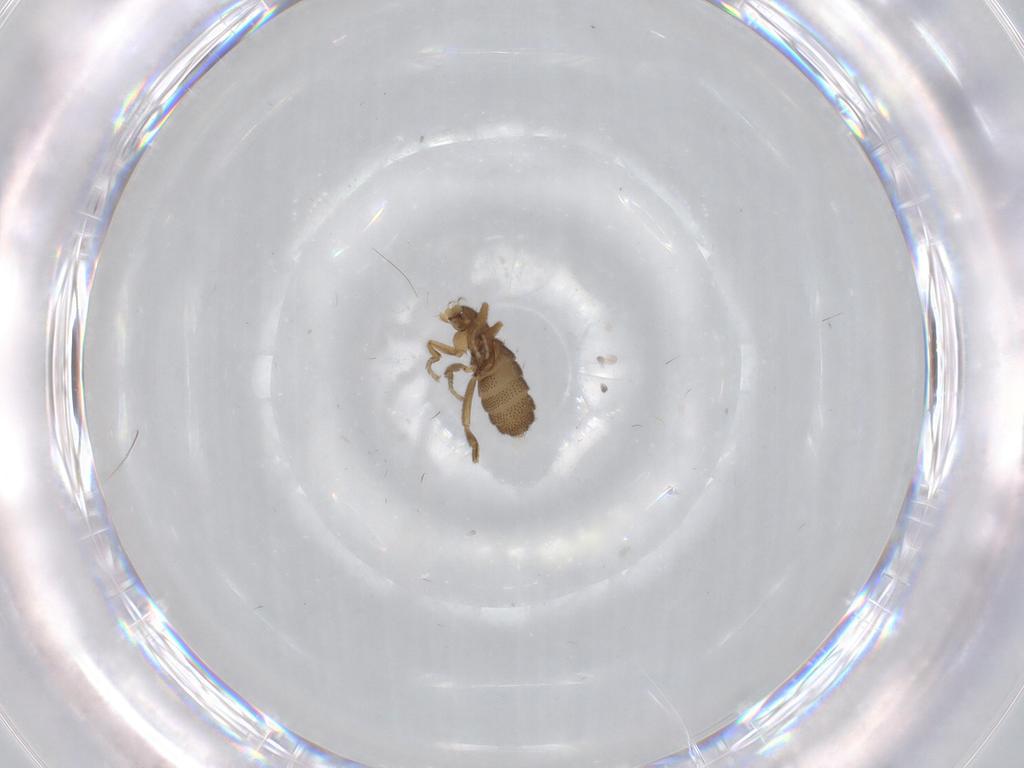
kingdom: Animalia
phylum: Arthropoda
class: Insecta
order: Diptera
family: Phoridae
